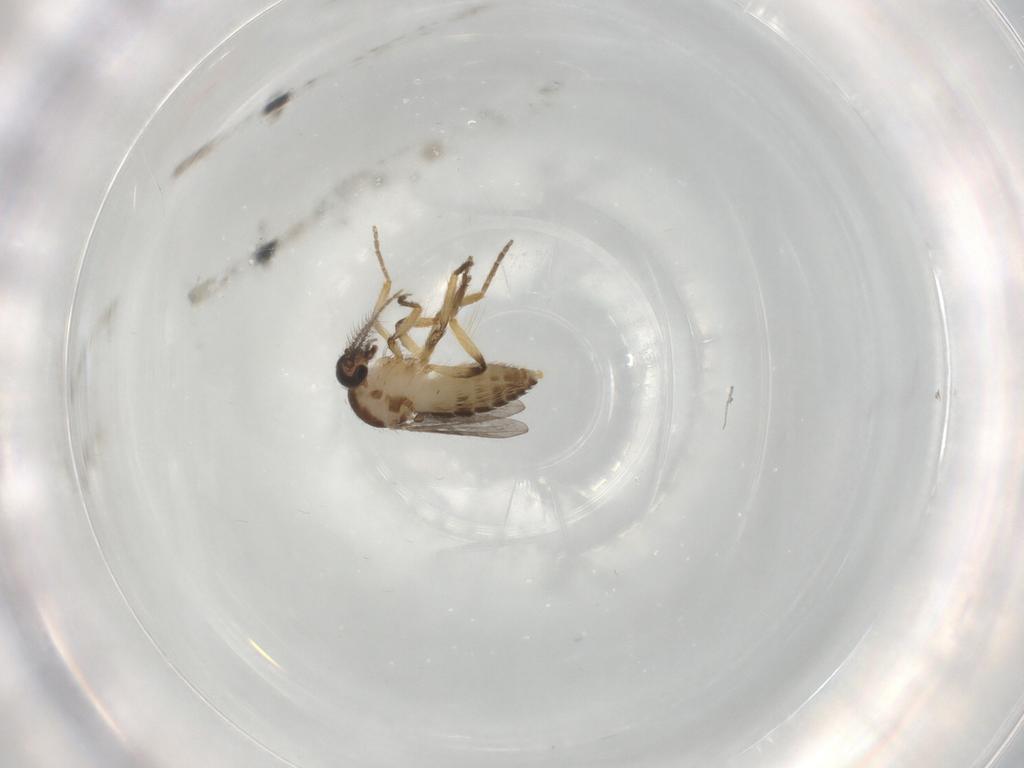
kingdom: Animalia
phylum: Arthropoda
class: Insecta
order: Diptera
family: Ceratopogonidae
